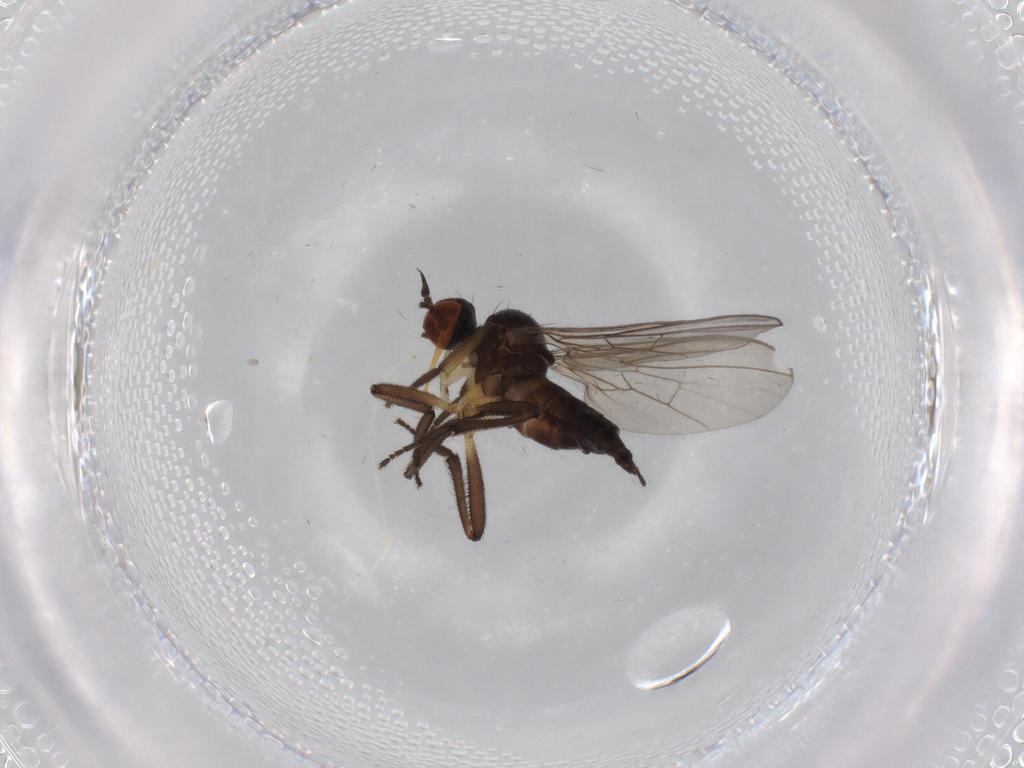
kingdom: Animalia
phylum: Arthropoda
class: Insecta
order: Diptera
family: Empididae
